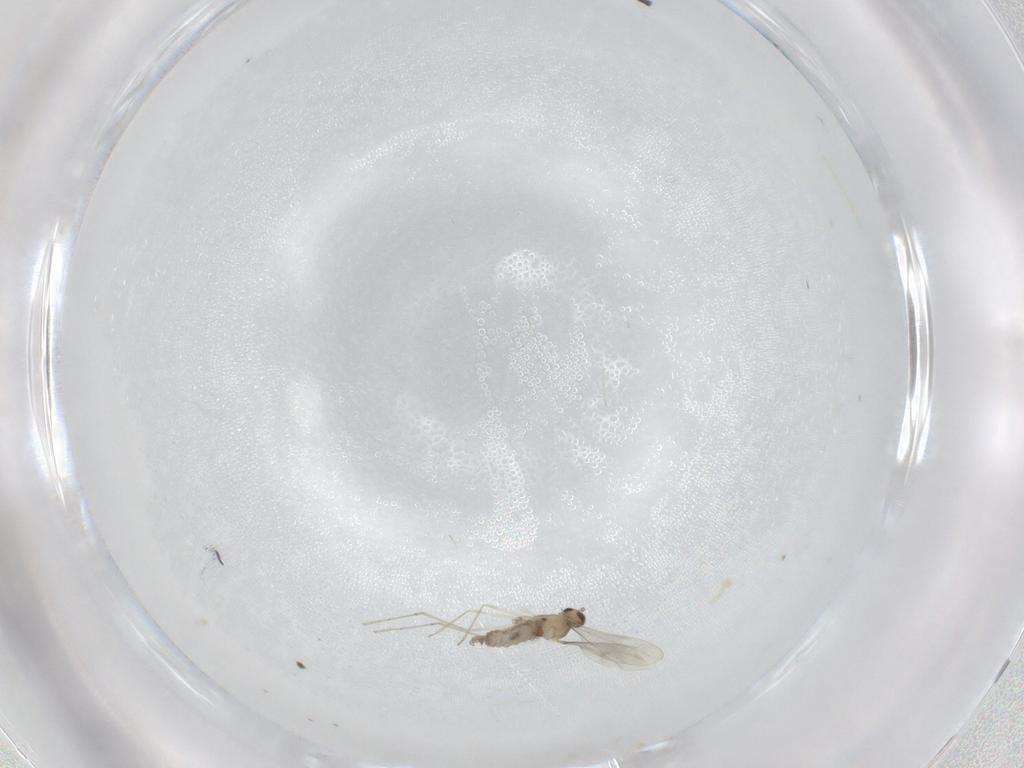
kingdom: Animalia
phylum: Arthropoda
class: Insecta
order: Diptera
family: Cecidomyiidae
